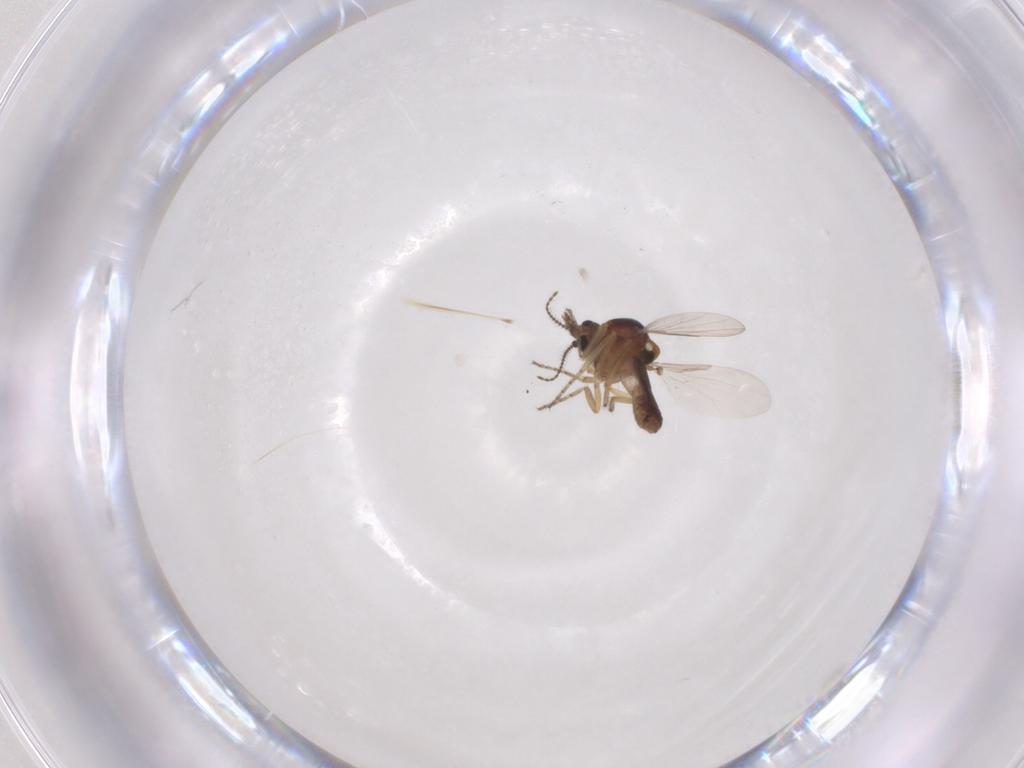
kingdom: Animalia
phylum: Arthropoda
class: Insecta
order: Diptera
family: Ceratopogonidae
